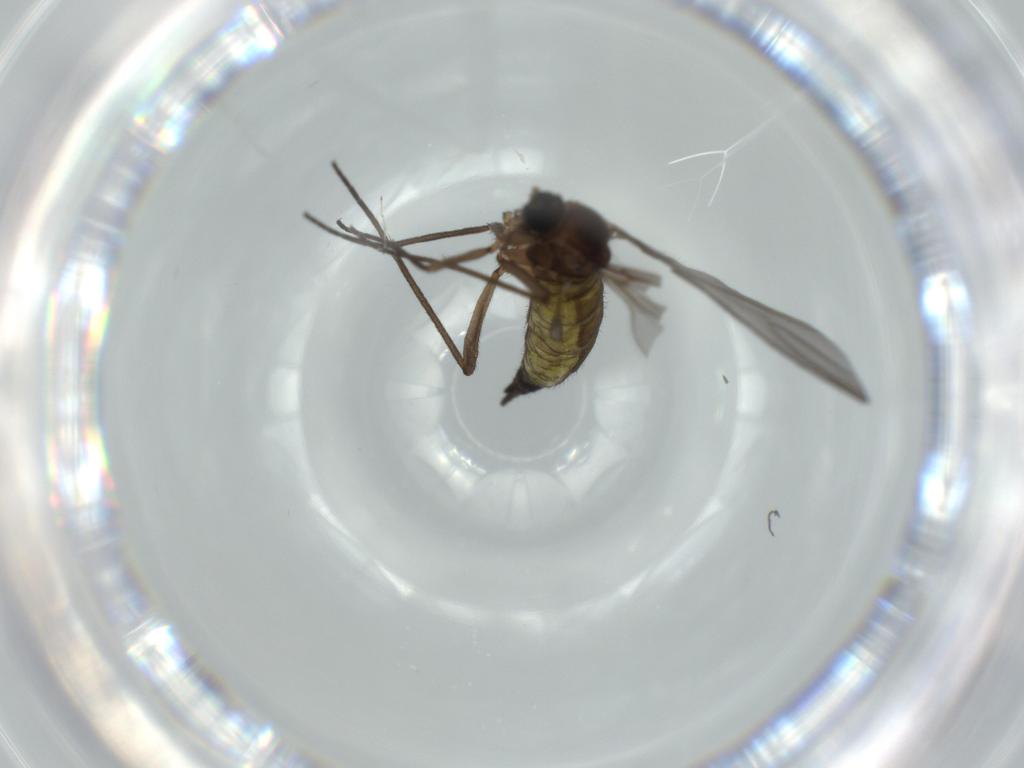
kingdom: Animalia
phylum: Arthropoda
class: Insecta
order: Diptera
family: Sciaridae
